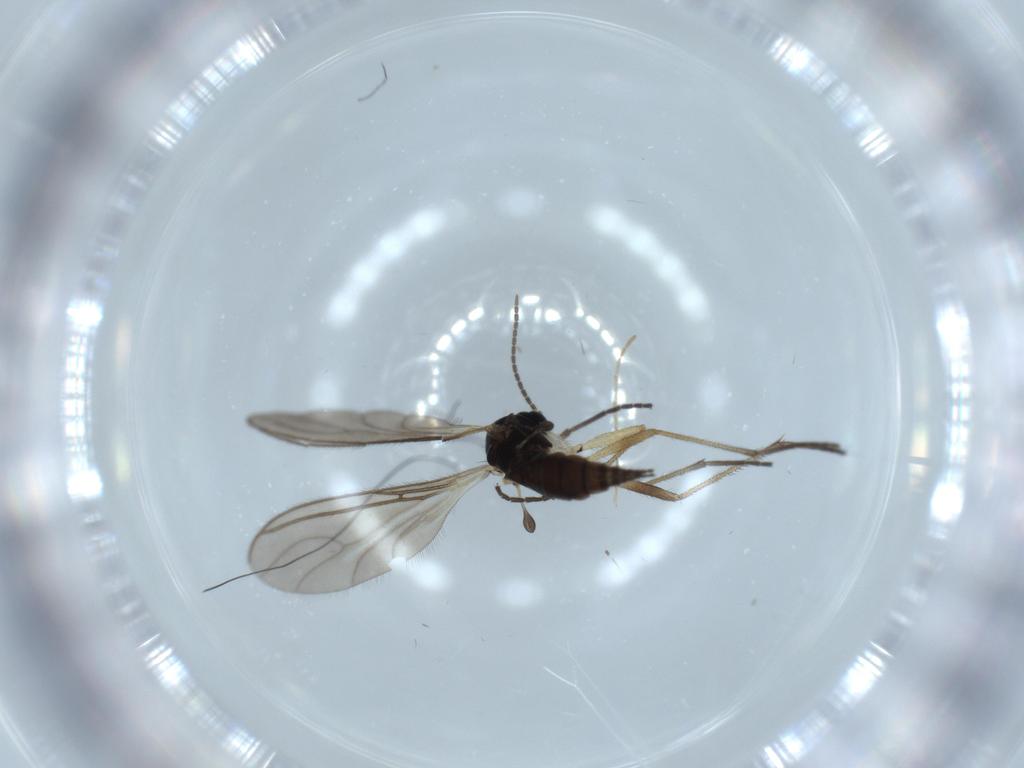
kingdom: Animalia
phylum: Arthropoda
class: Insecta
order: Diptera
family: Sciaridae
